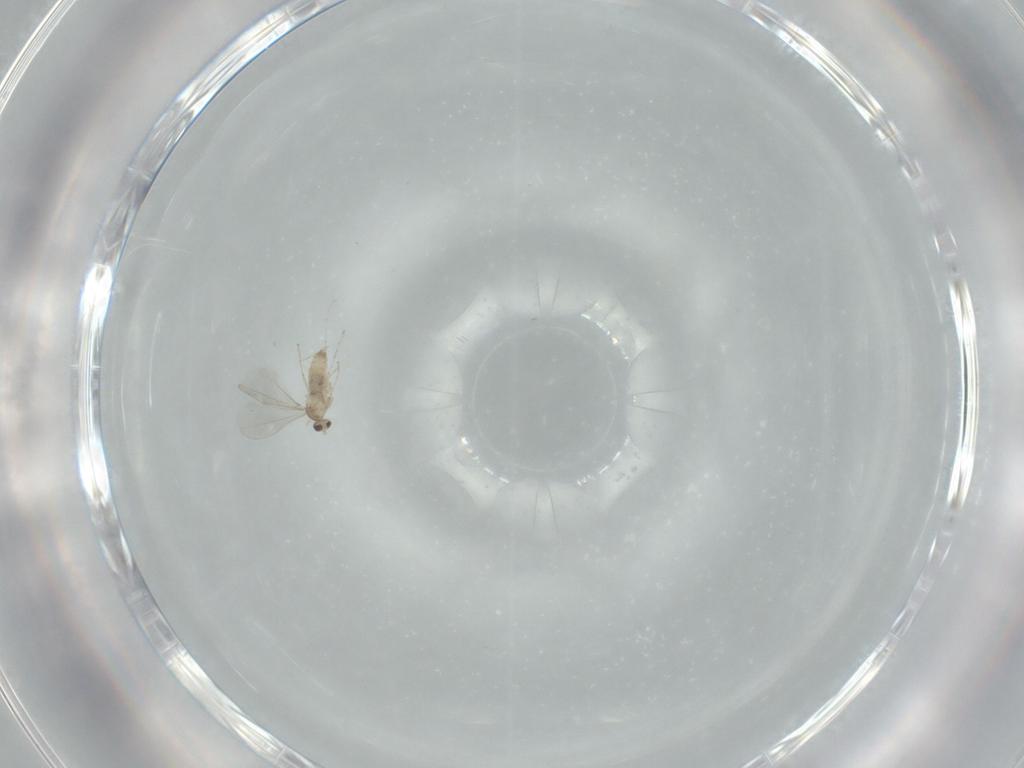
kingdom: Animalia
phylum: Arthropoda
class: Insecta
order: Diptera
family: Cecidomyiidae
